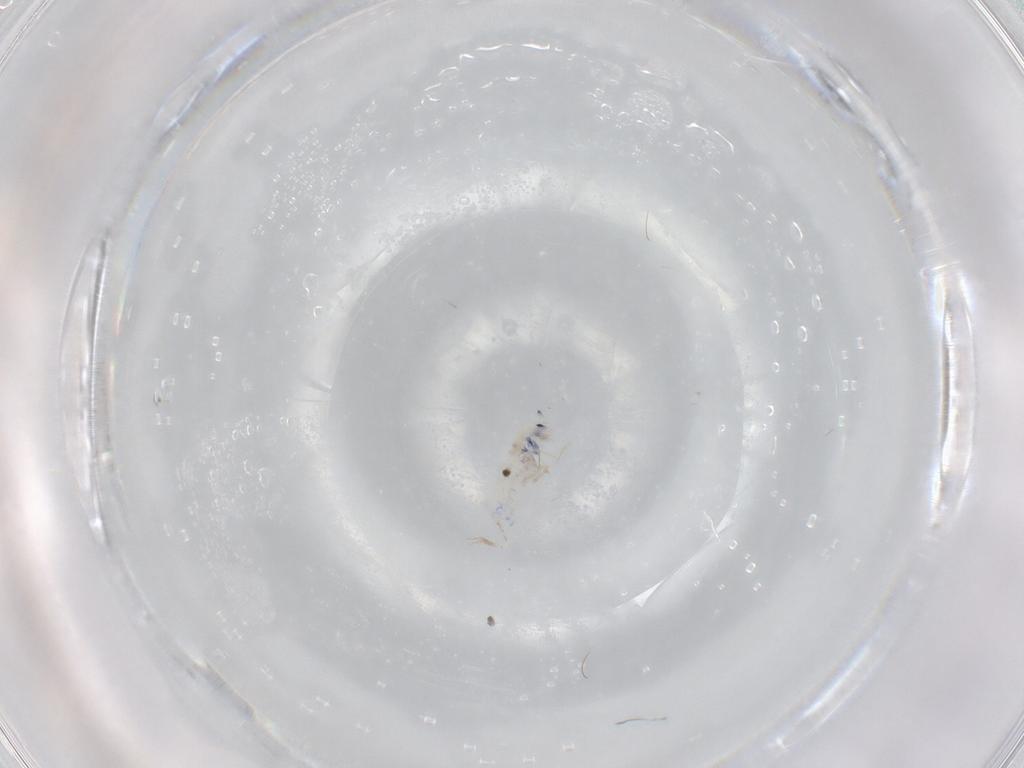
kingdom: Animalia
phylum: Arthropoda
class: Collembola
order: Entomobryomorpha
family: Entomobryidae
